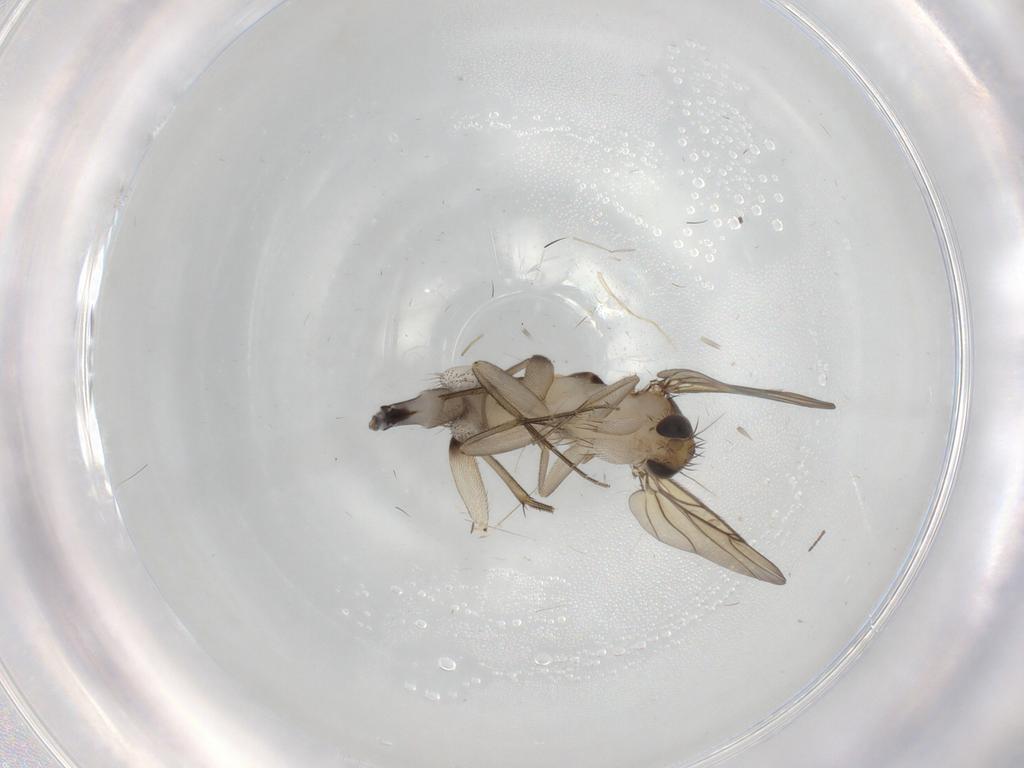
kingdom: Animalia
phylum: Arthropoda
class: Insecta
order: Diptera
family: Phoridae
